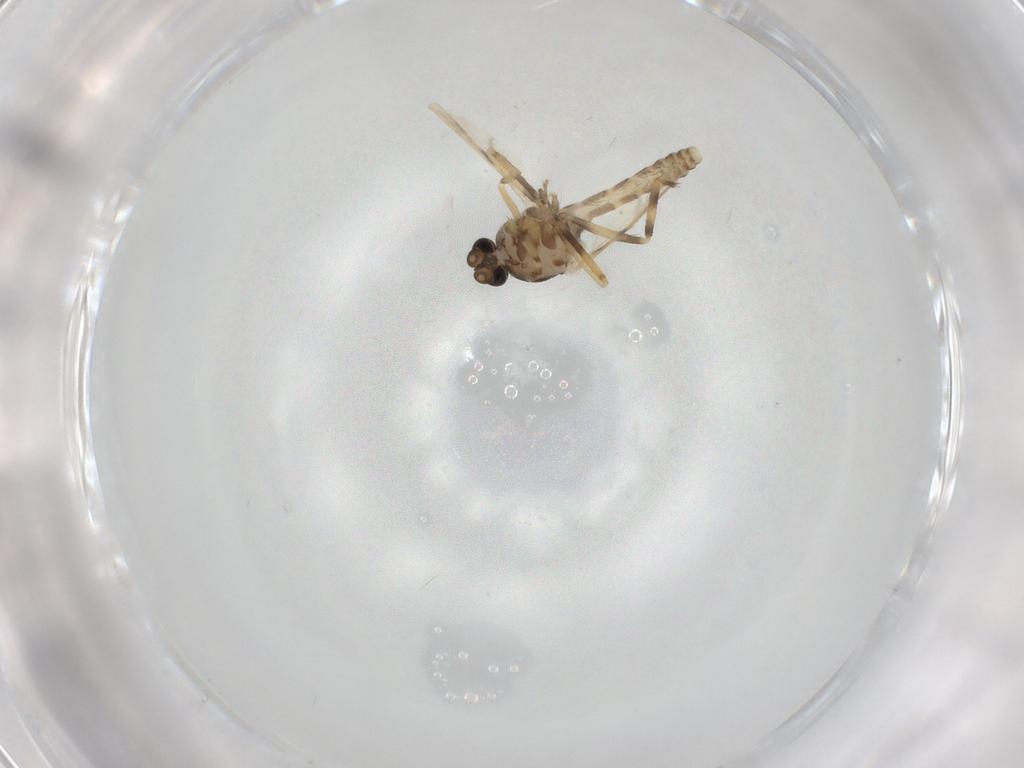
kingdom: Animalia
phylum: Arthropoda
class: Insecta
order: Diptera
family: Ceratopogonidae
